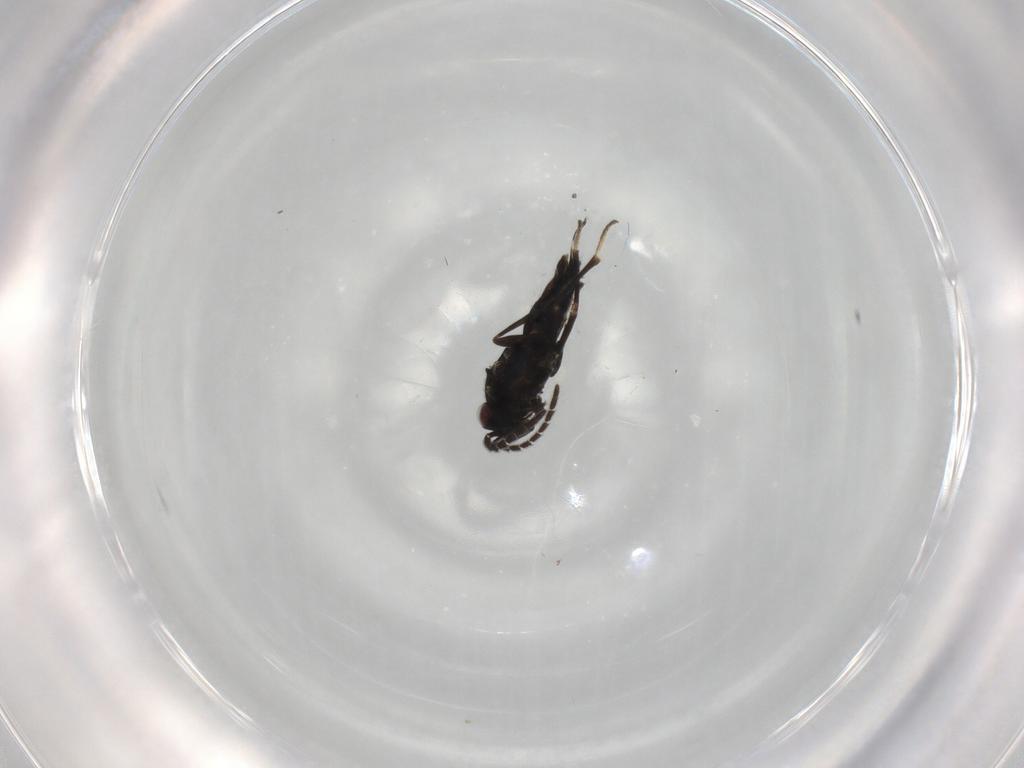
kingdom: Animalia
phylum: Arthropoda
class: Insecta
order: Hymenoptera
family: Encyrtidae
